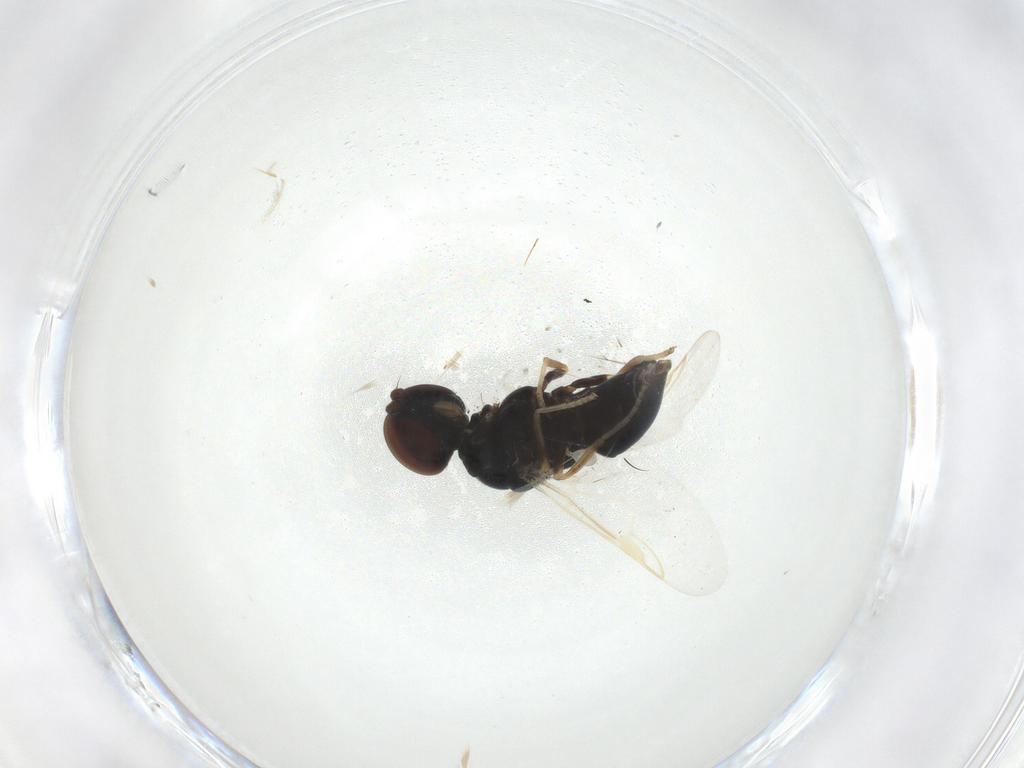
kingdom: Animalia
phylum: Arthropoda
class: Insecta
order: Diptera
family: Stratiomyidae
